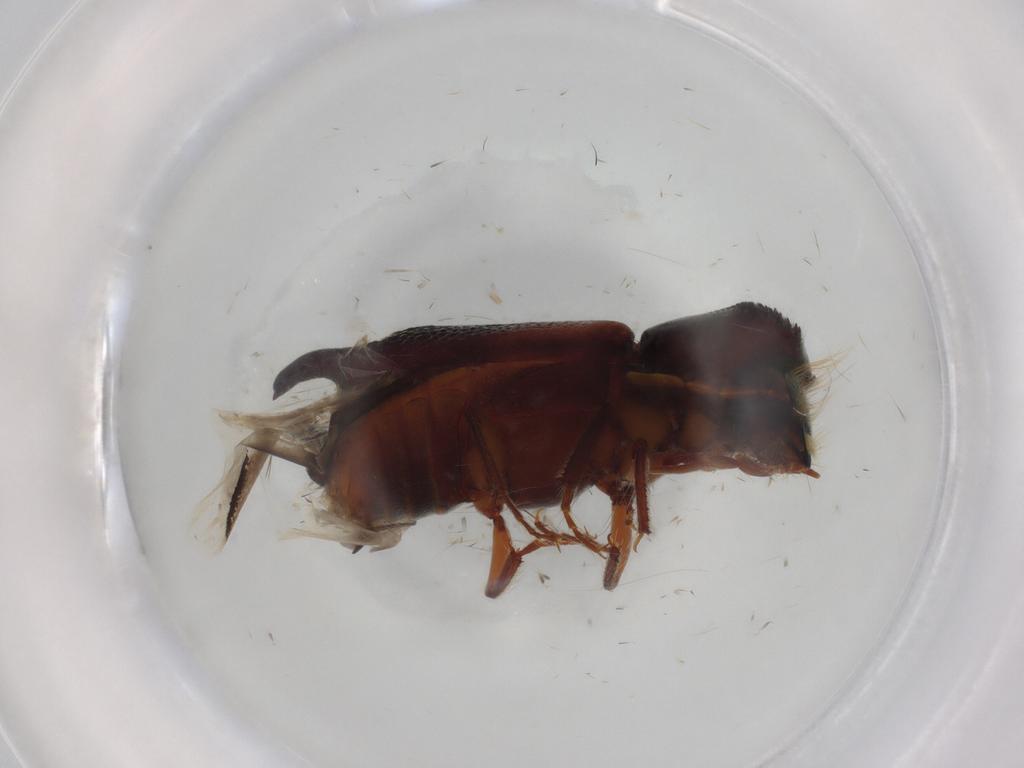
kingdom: Animalia
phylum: Arthropoda
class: Insecta
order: Coleoptera
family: Bostrichidae
